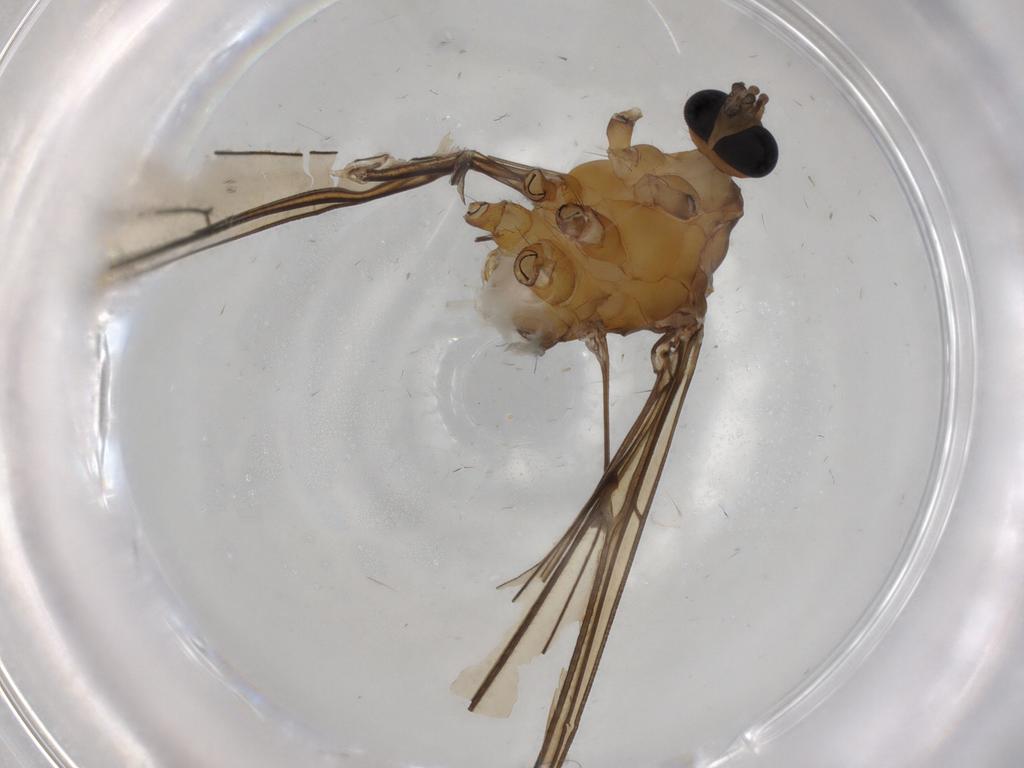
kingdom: Animalia
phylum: Arthropoda
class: Insecta
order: Diptera
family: Limoniidae
